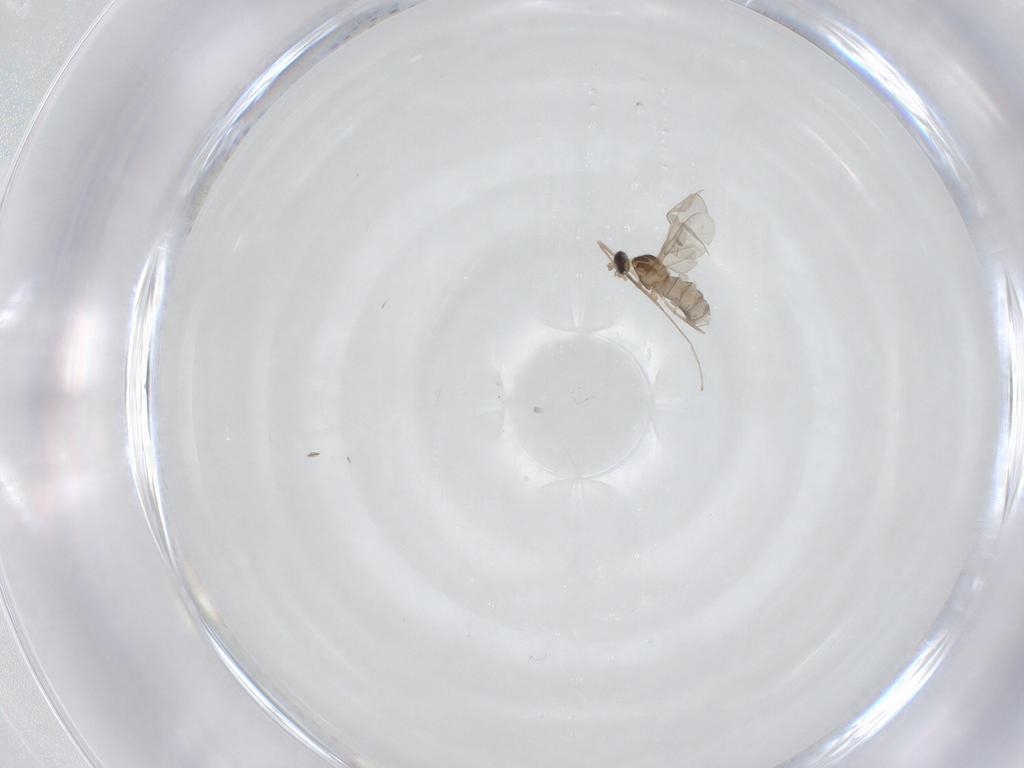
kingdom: Animalia
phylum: Arthropoda
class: Insecta
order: Diptera
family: Cecidomyiidae
